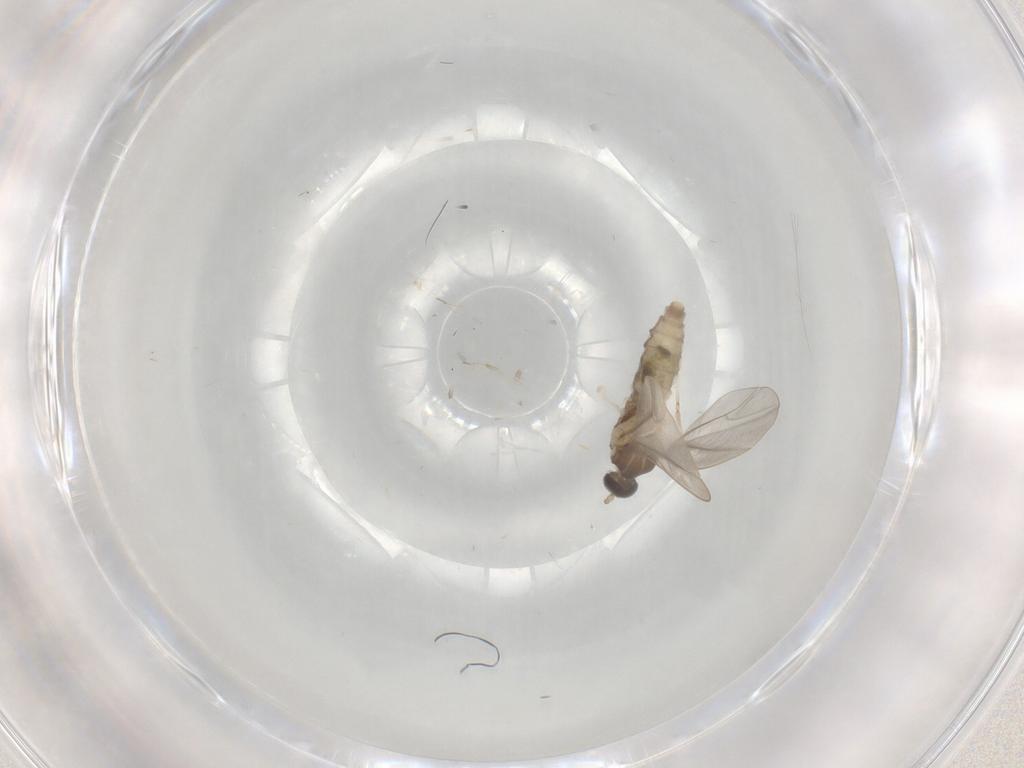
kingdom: Animalia
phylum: Arthropoda
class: Insecta
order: Diptera
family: Cecidomyiidae
